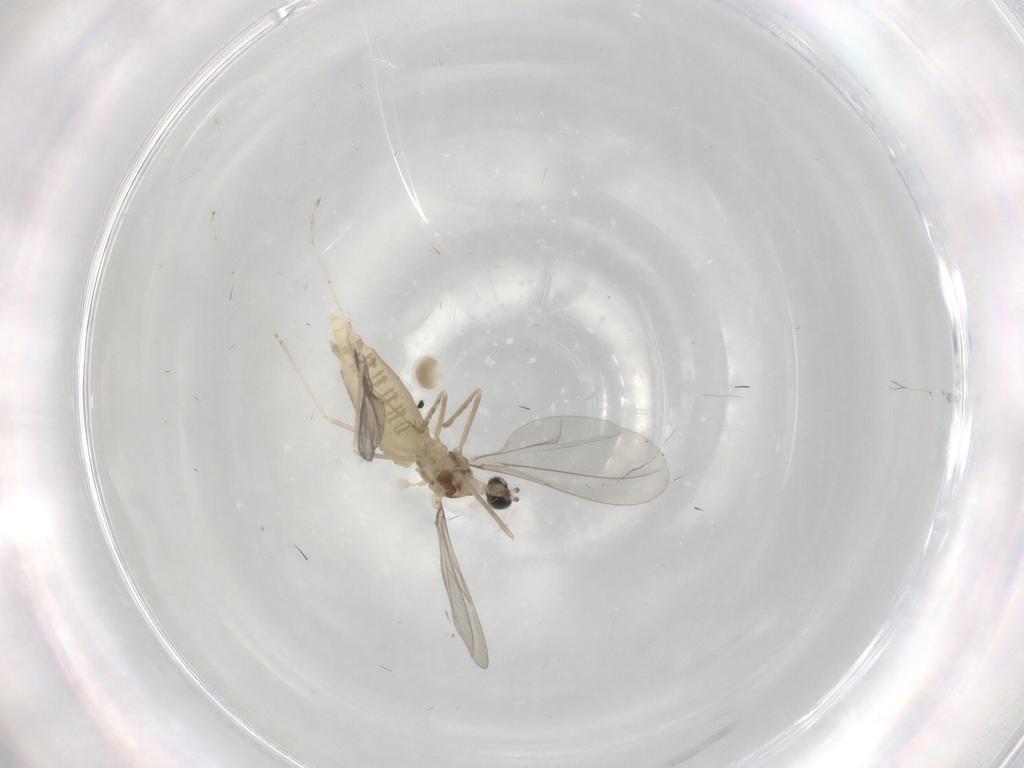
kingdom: Animalia
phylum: Arthropoda
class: Insecta
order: Diptera
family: Cecidomyiidae
